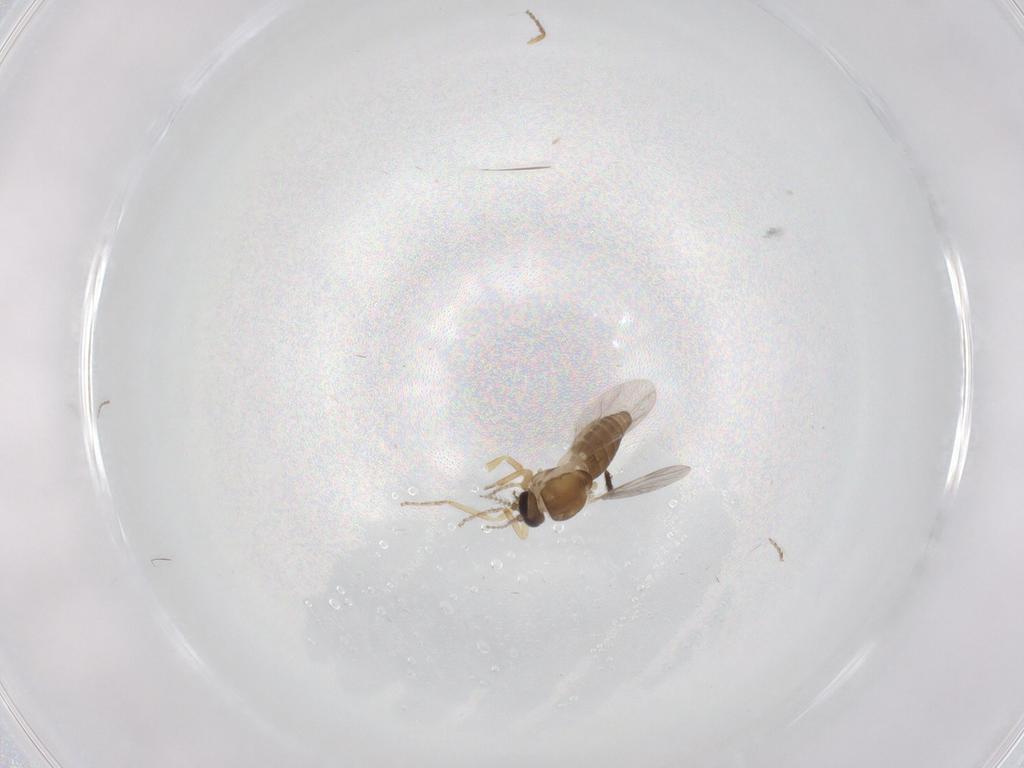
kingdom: Animalia
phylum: Arthropoda
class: Insecta
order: Diptera
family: Ceratopogonidae
